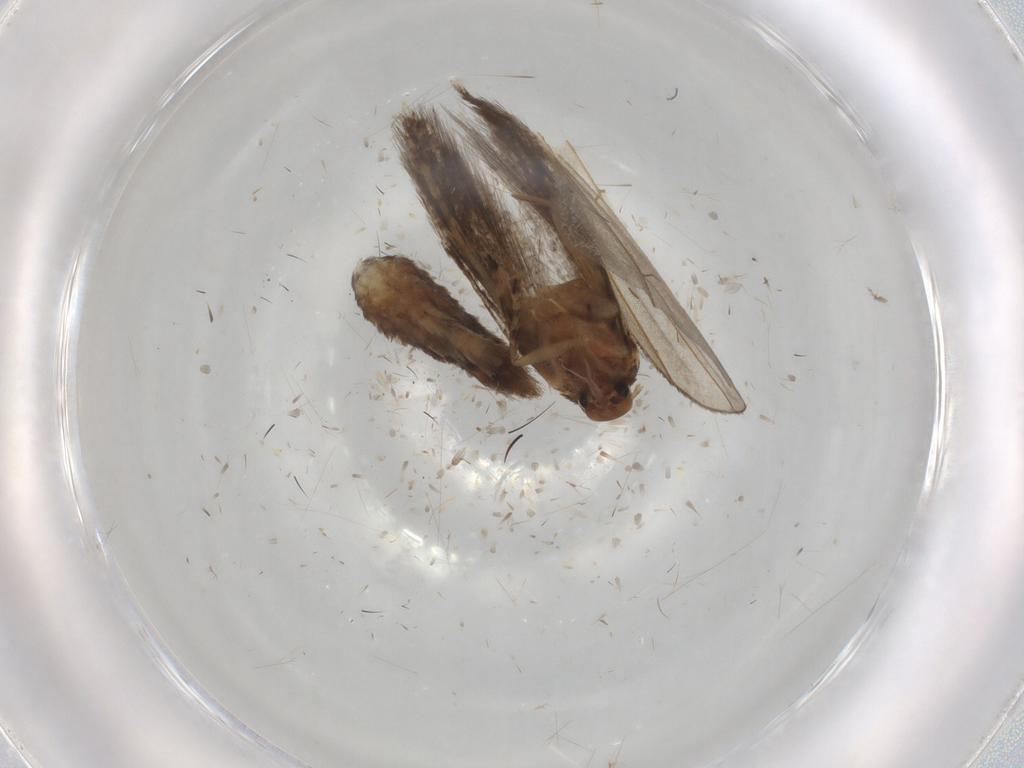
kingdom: Animalia
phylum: Arthropoda
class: Insecta
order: Lepidoptera
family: Elachistidae
